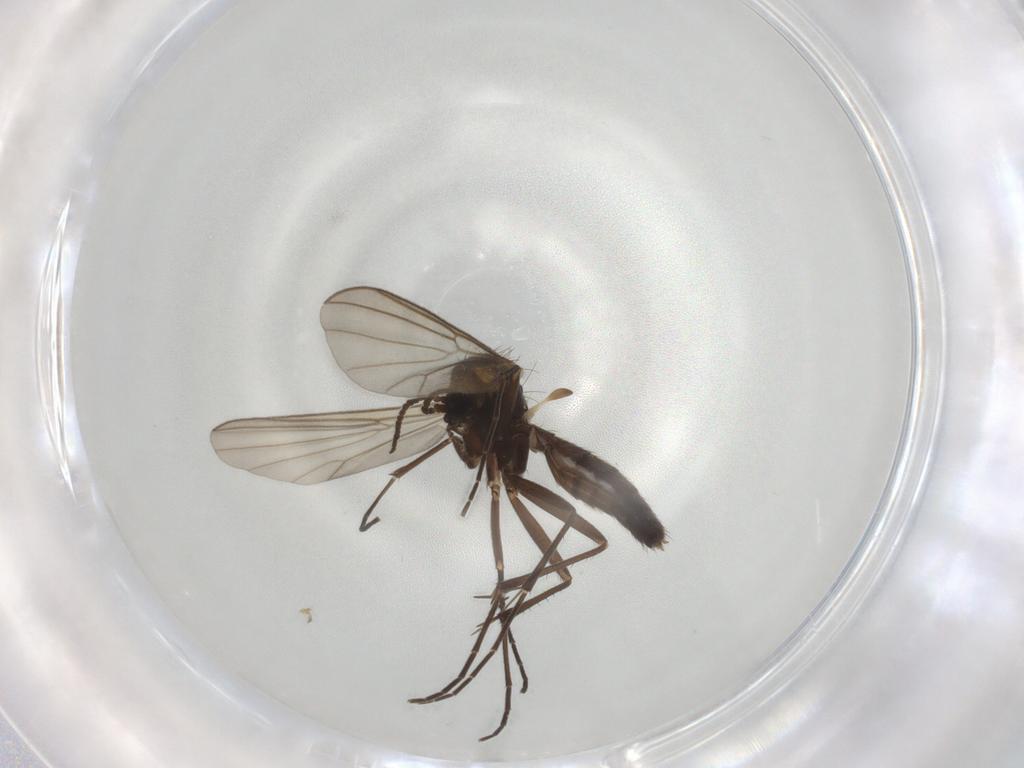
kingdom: Animalia
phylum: Arthropoda
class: Insecta
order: Diptera
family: Mycetophilidae
